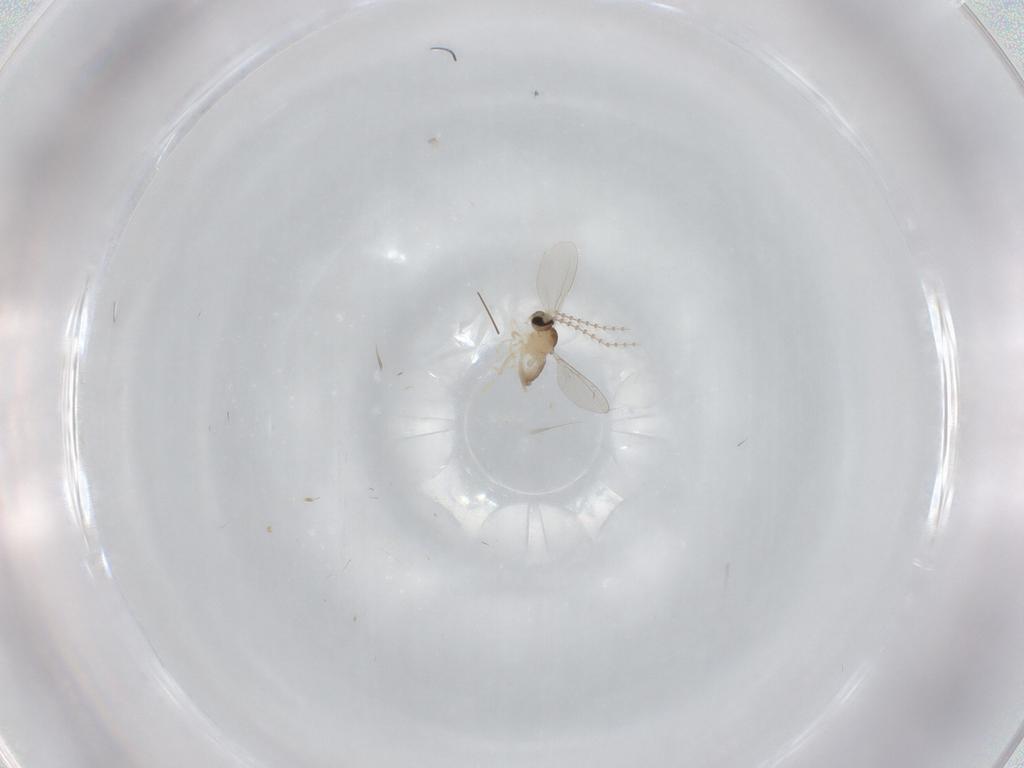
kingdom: Animalia
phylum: Arthropoda
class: Insecta
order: Diptera
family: Cecidomyiidae
